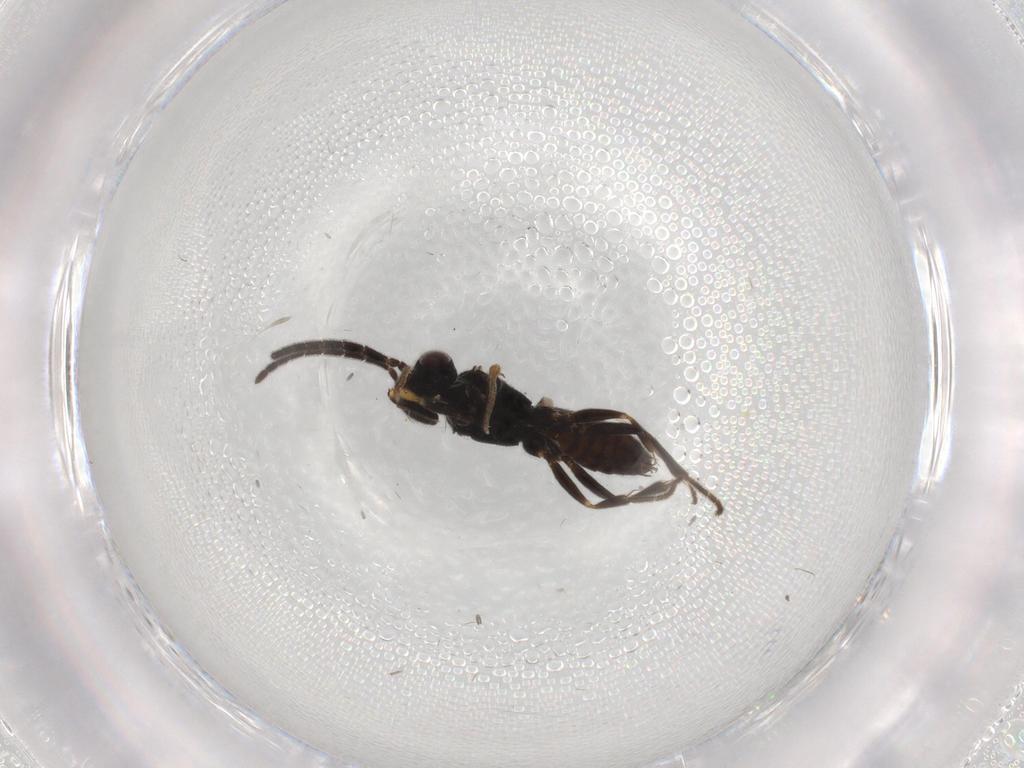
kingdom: Animalia
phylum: Arthropoda
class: Insecta
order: Hymenoptera
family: Dryinidae
